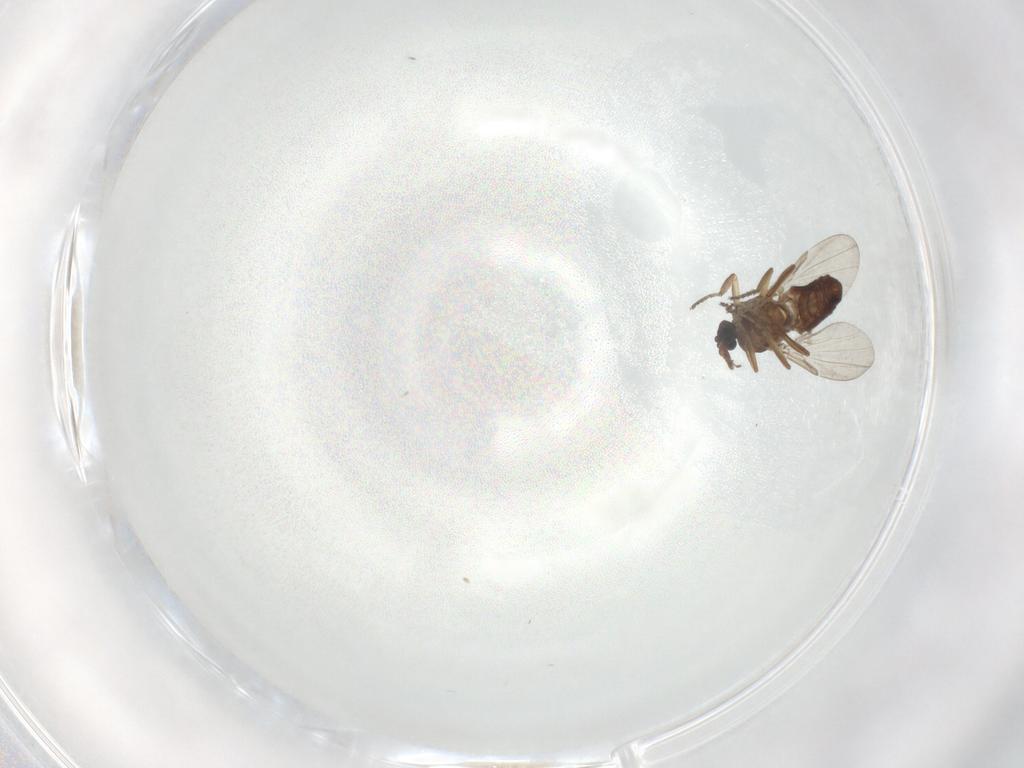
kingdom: Animalia
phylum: Arthropoda
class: Insecta
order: Diptera
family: Ceratopogonidae
